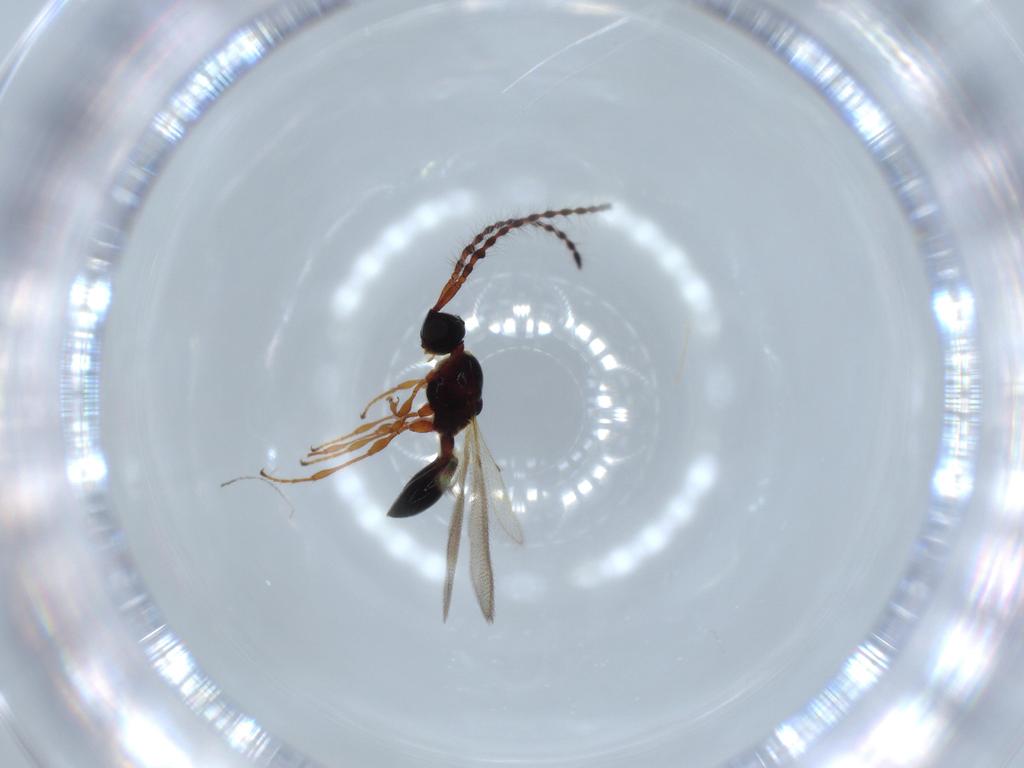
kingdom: Animalia
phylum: Arthropoda
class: Insecta
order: Hymenoptera
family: Diapriidae
